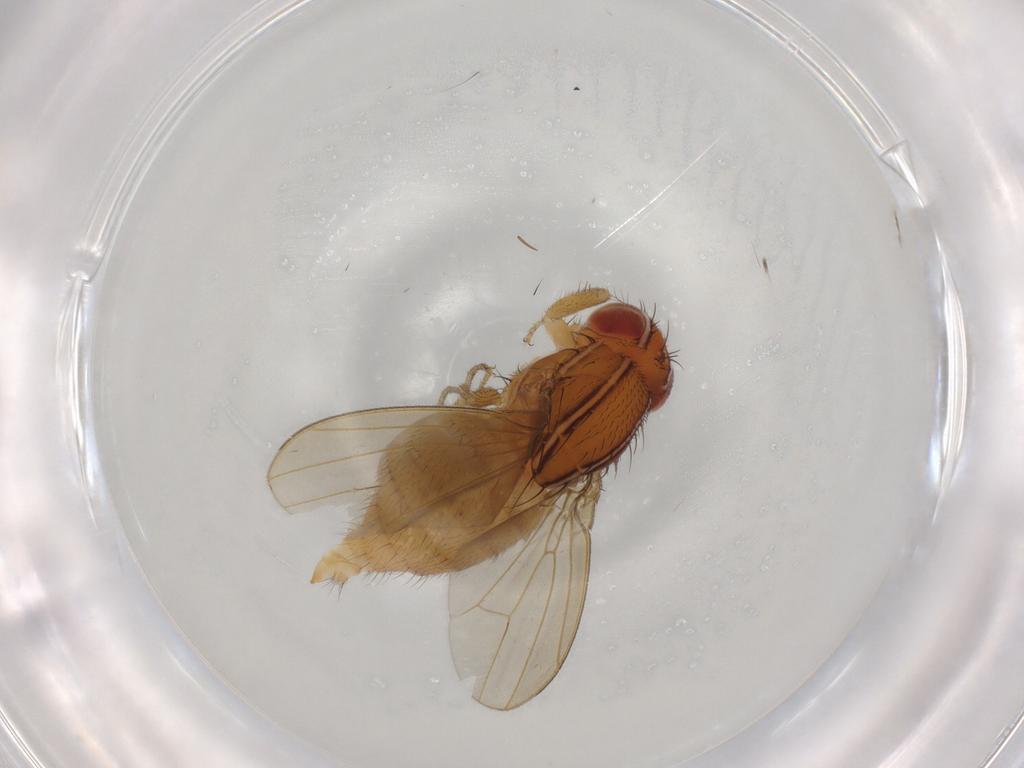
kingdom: Animalia
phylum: Arthropoda
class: Insecta
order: Diptera
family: Drosophilidae
